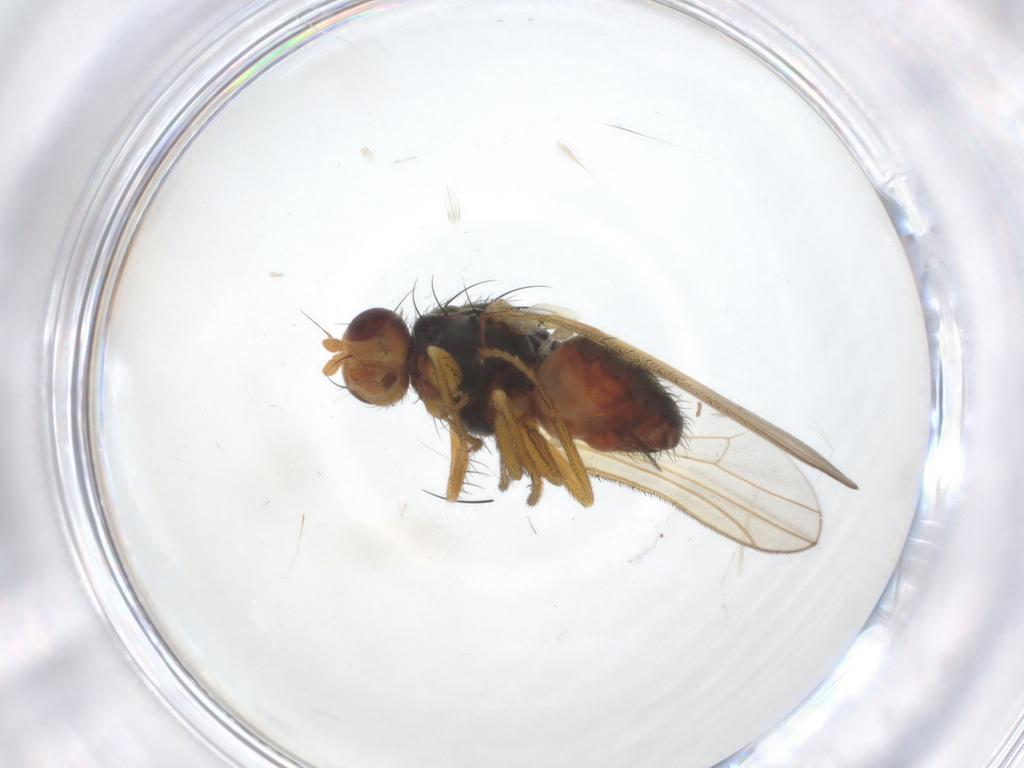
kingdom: Animalia
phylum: Arthropoda
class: Insecta
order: Diptera
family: Heleomyzidae
